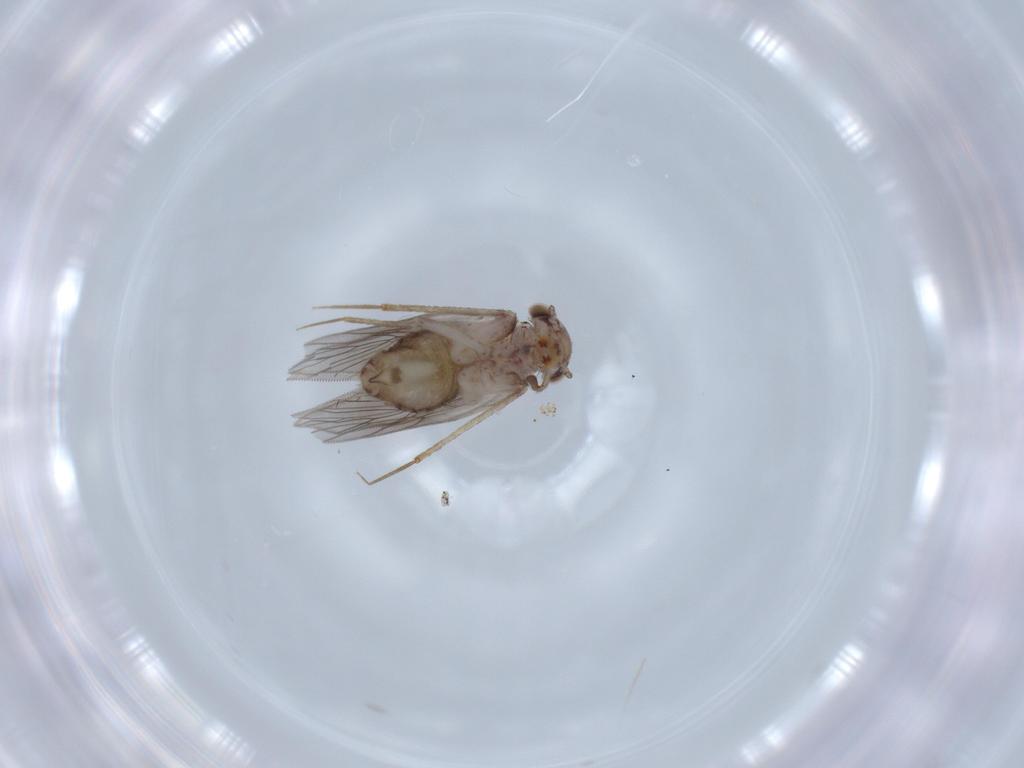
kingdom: Animalia
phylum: Arthropoda
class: Insecta
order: Psocodea
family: Lepidopsocidae
